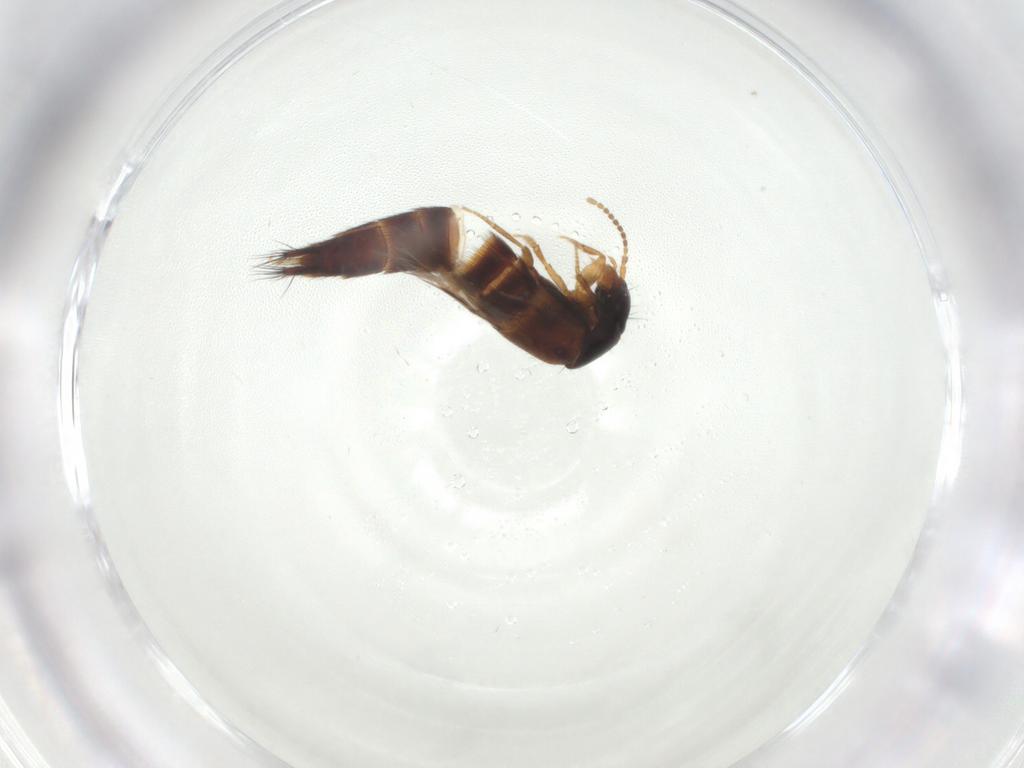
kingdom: Animalia
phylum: Arthropoda
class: Insecta
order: Coleoptera
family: Staphylinidae
